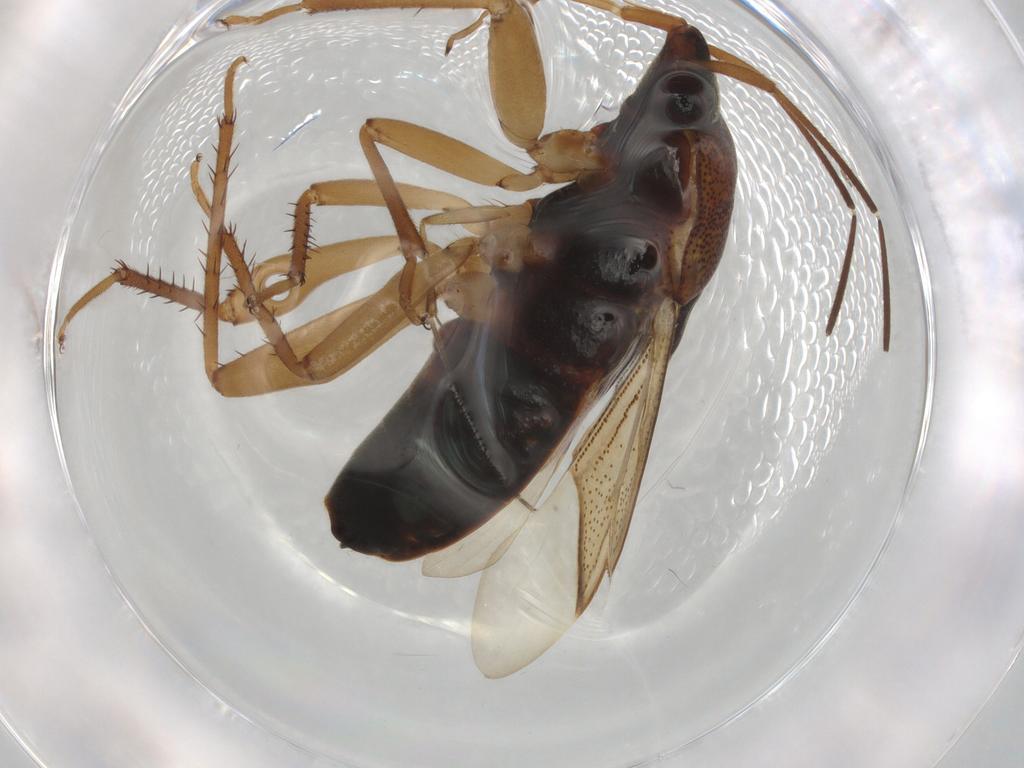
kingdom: Animalia
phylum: Arthropoda
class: Insecta
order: Hemiptera
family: Rhyparochromidae
